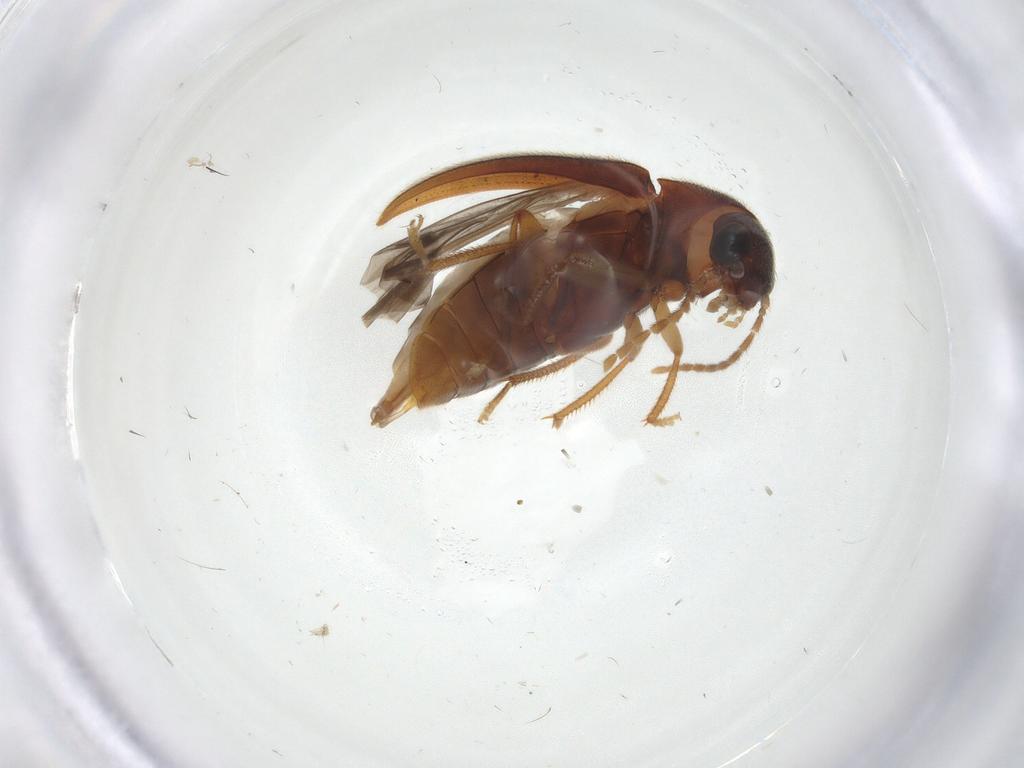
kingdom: Animalia
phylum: Arthropoda
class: Insecta
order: Coleoptera
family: Ptilodactylidae
